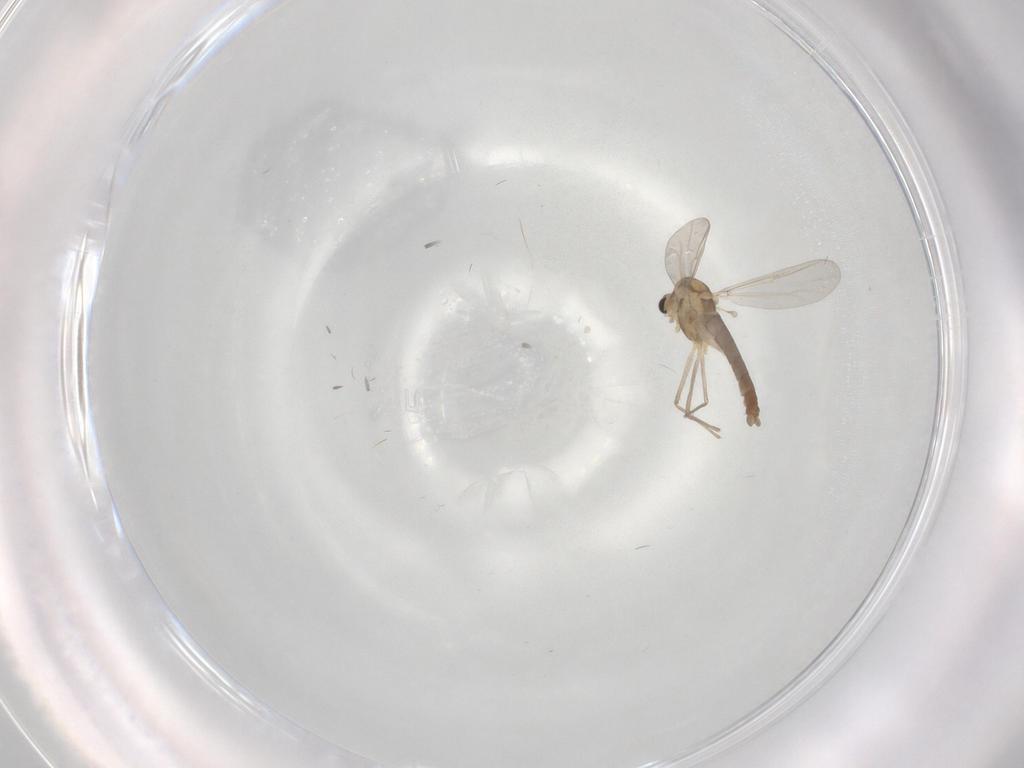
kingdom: Animalia
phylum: Arthropoda
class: Insecta
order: Diptera
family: Chironomidae
